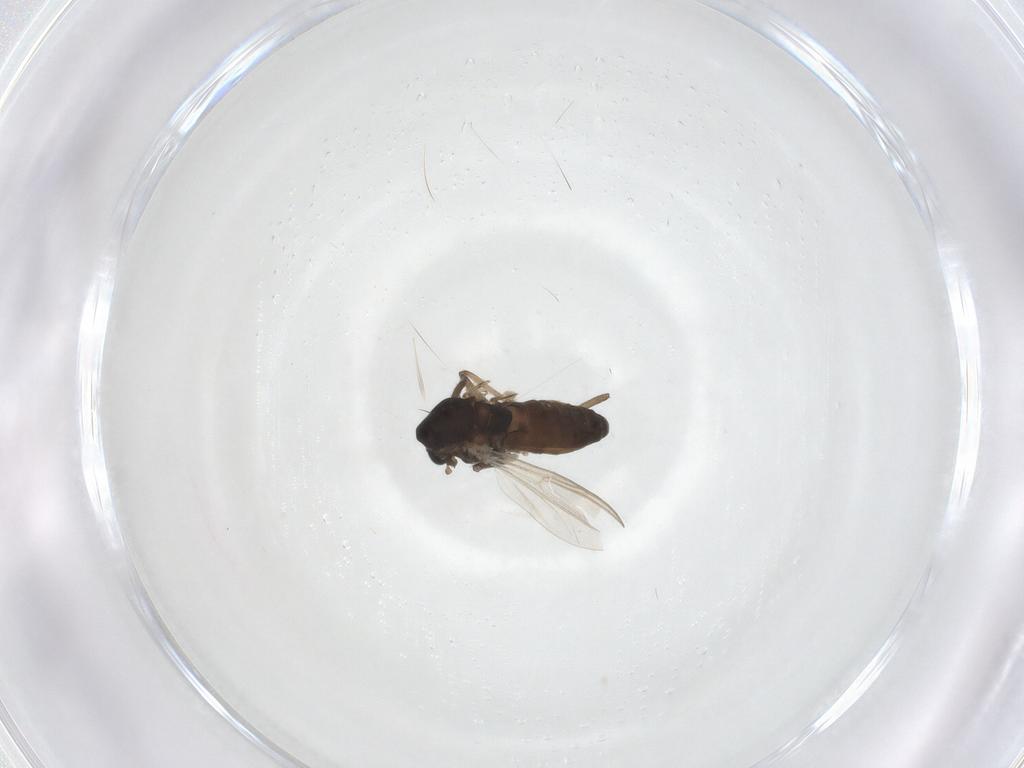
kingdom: Animalia
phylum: Arthropoda
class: Insecta
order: Diptera
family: Chironomidae
